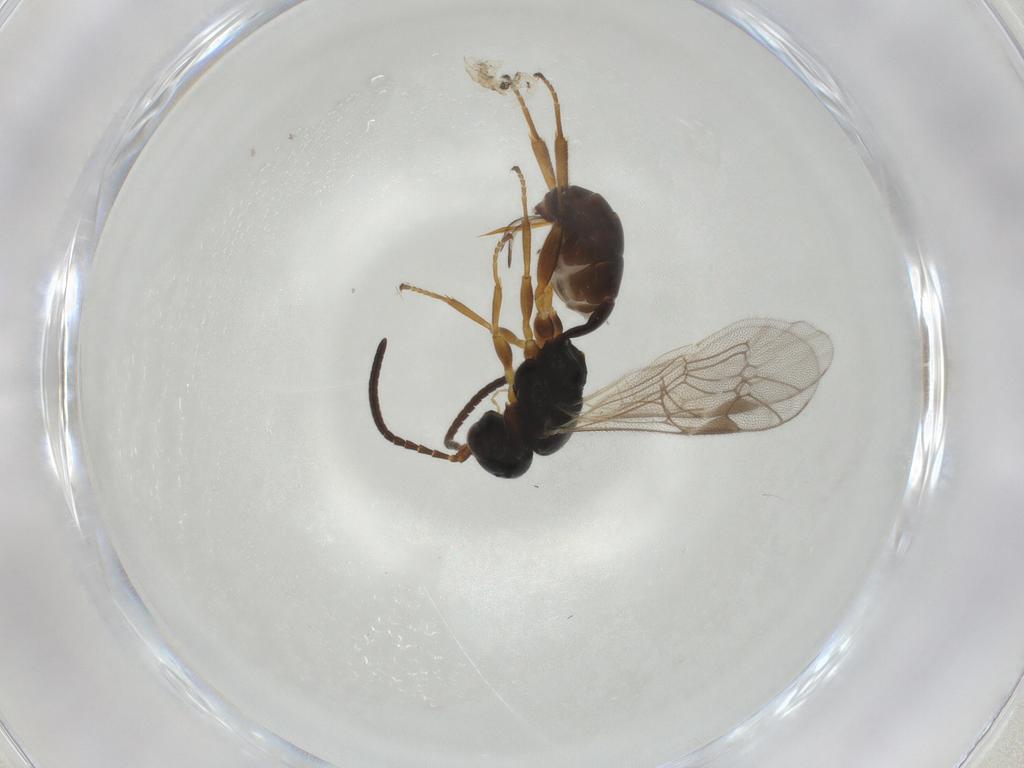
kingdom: Animalia
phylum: Arthropoda
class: Insecta
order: Hymenoptera
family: Ichneumonidae
